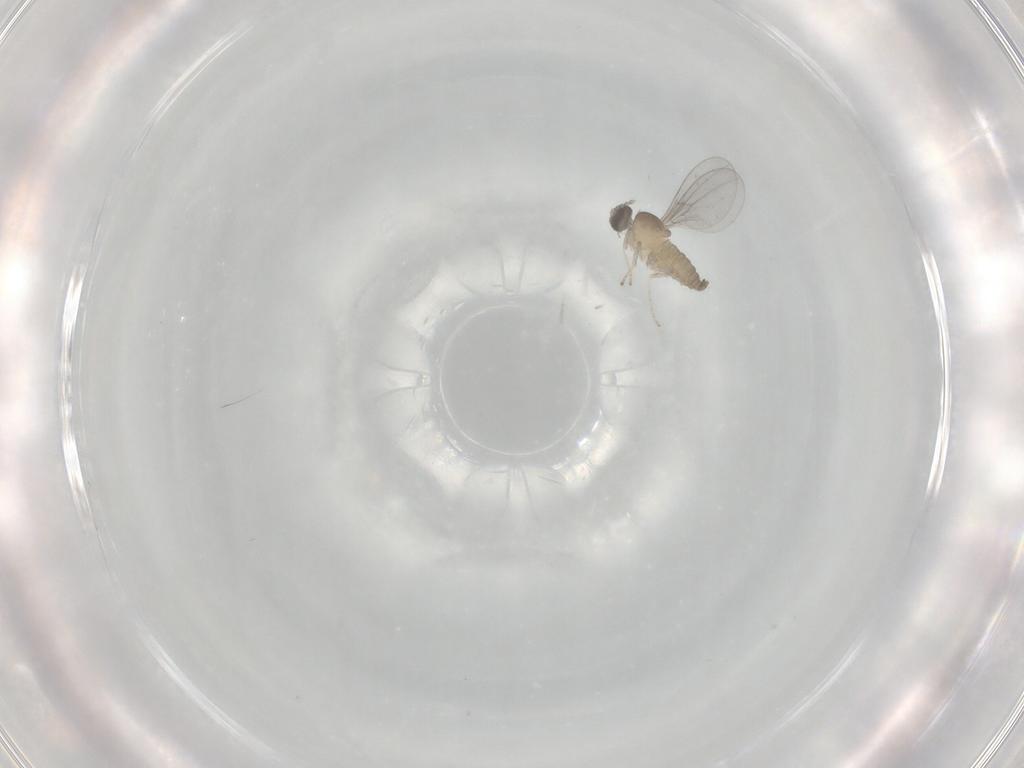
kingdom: Animalia
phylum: Arthropoda
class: Insecta
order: Diptera
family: Cecidomyiidae
